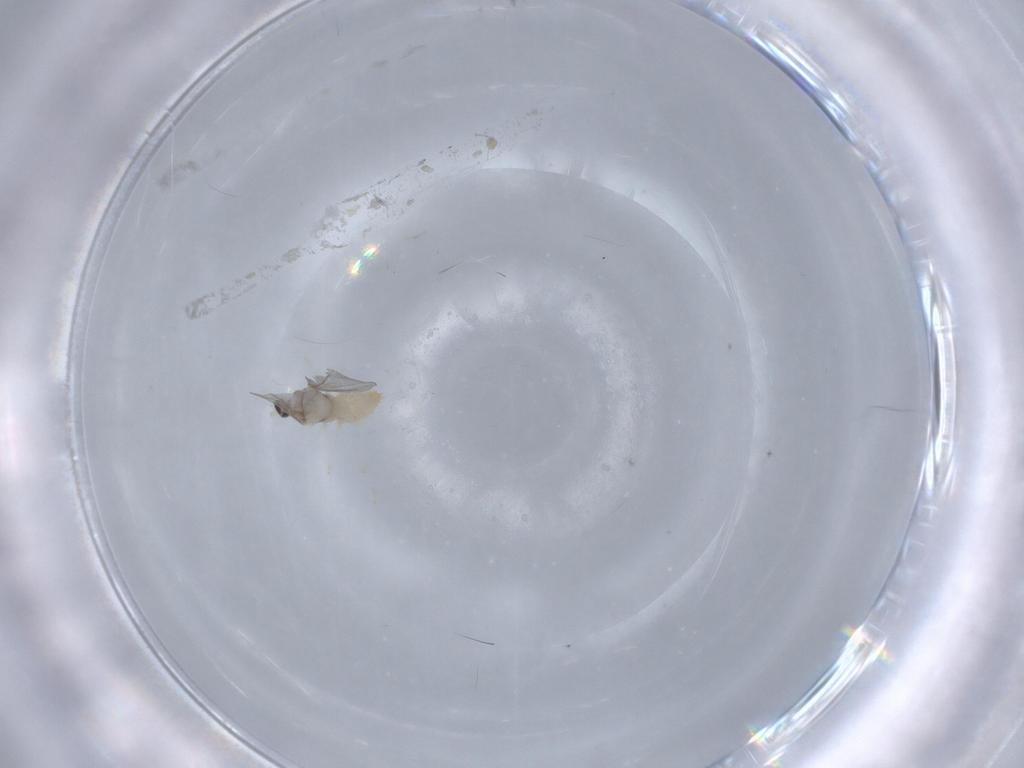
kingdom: Animalia
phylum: Arthropoda
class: Insecta
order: Diptera
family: Cecidomyiidae
